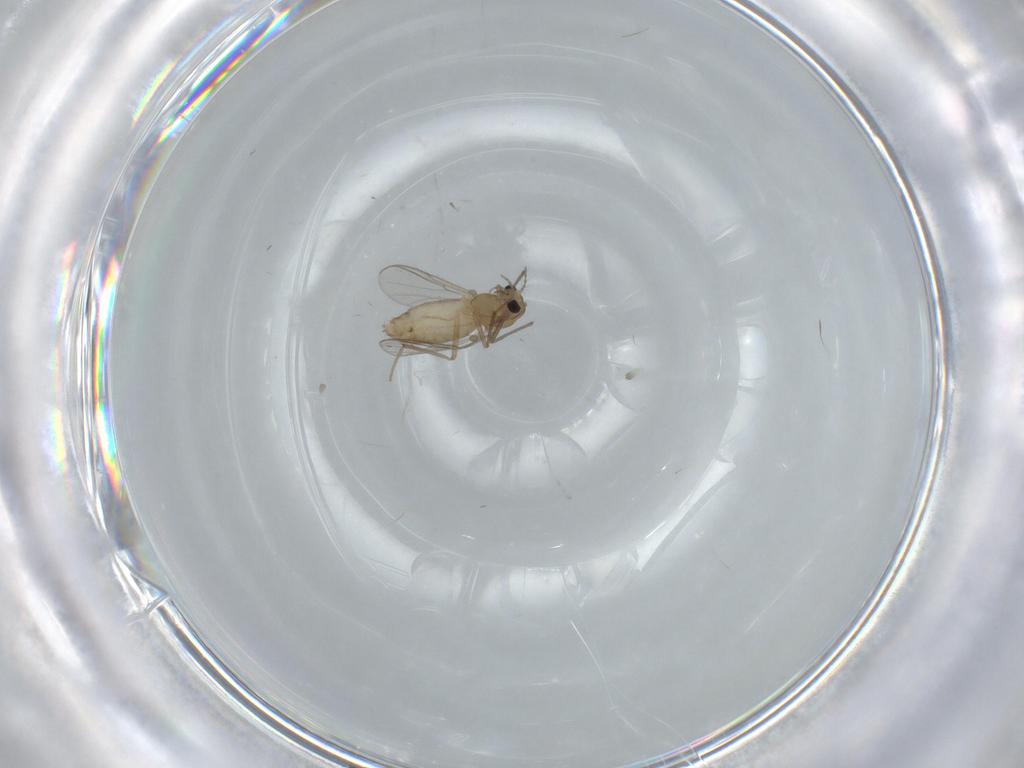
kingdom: Animalia
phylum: Arthropoda
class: Insecta
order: Diptera
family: Chironomidae
